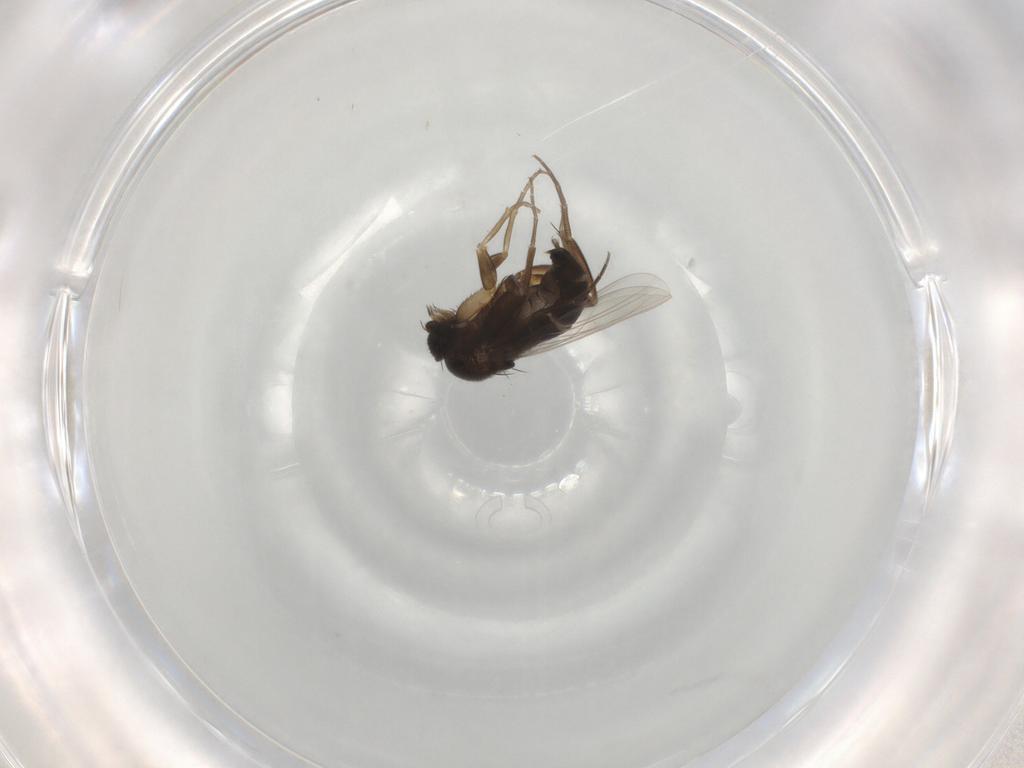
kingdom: Animalia
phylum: Arthropoda
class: Insecta
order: Diptera
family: Phoridae
